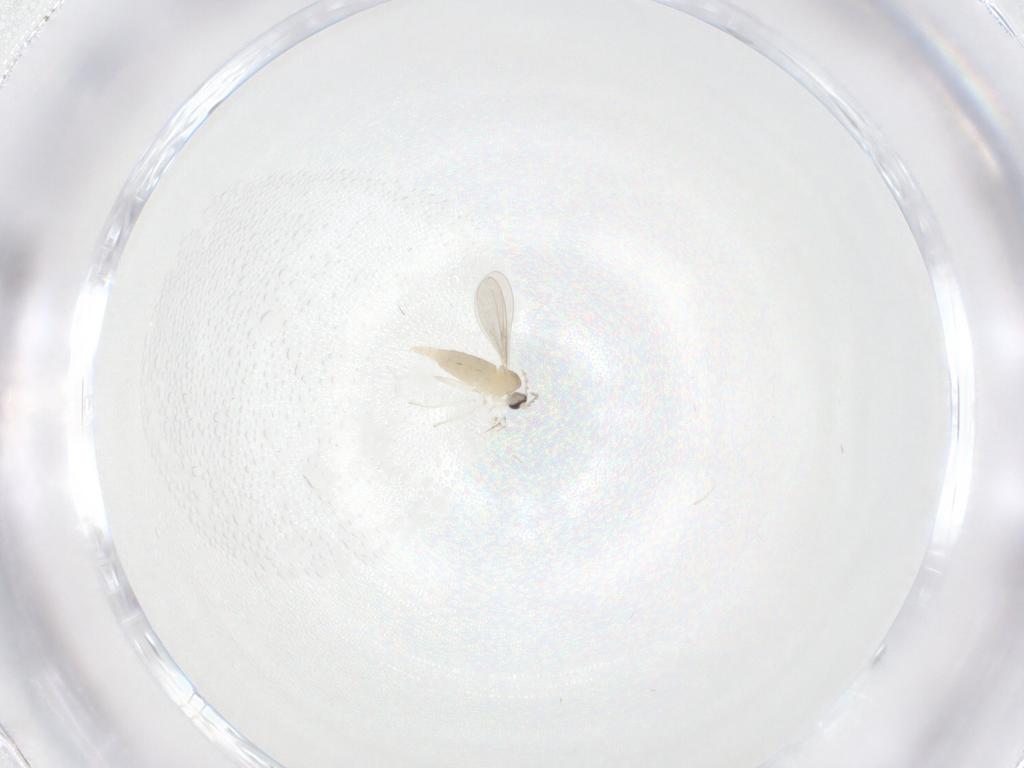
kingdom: Animalia
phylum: Arthropoda
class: Insecta
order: Diptera
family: Cecidomyiidae
